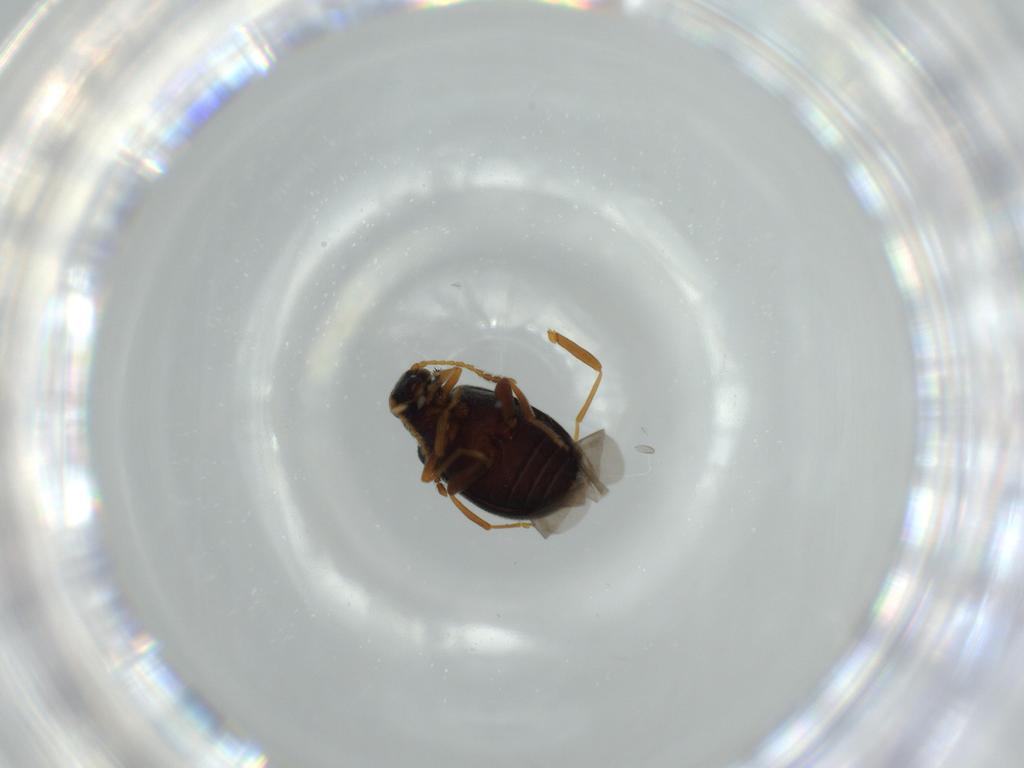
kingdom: Animalia
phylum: Arthropoda
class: Insecta
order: Coleoptera
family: Aderidae
